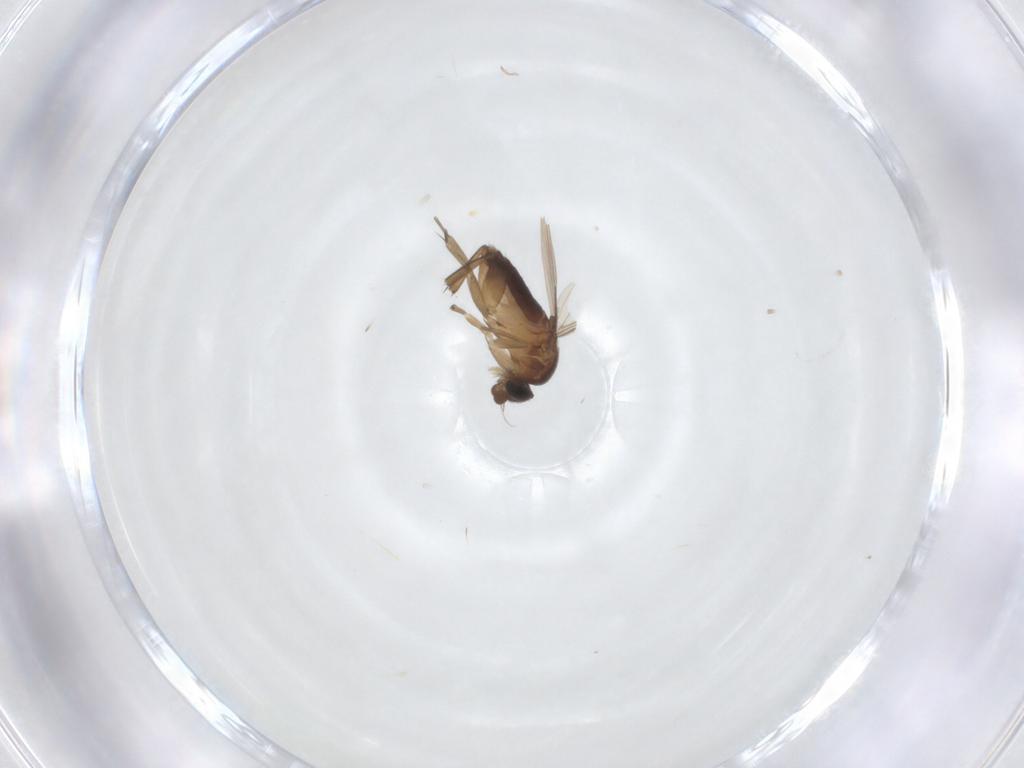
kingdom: Animalia
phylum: Arthropoda
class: Insecta
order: Diptera
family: Phoridae
